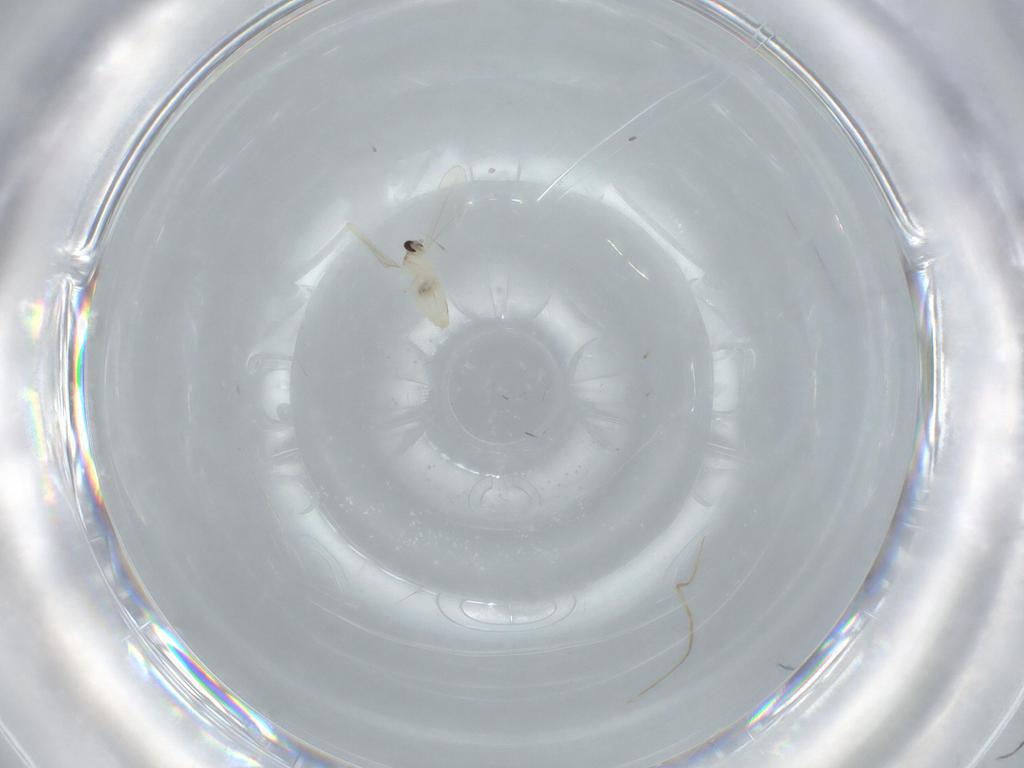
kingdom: Animalia
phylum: Arthropoda
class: Insecta
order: Diptera
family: Cecidomyiidae
